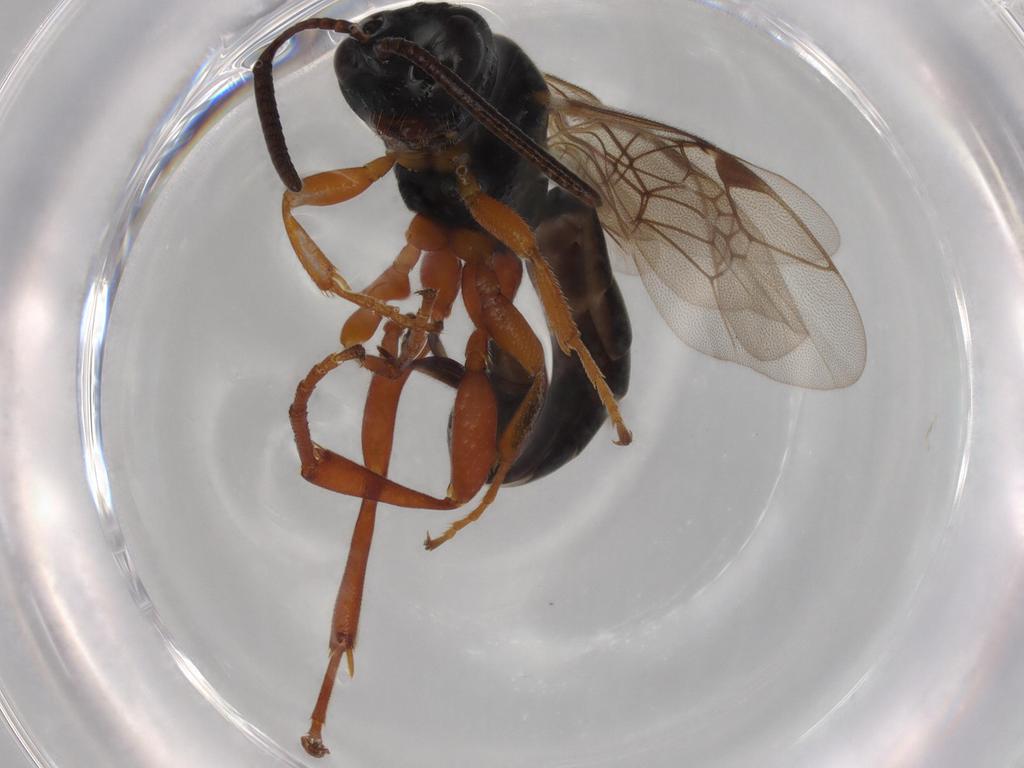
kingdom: Animalia
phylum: Arthropoda
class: Insecta
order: Hymenoptera
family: Ichneumonidae
